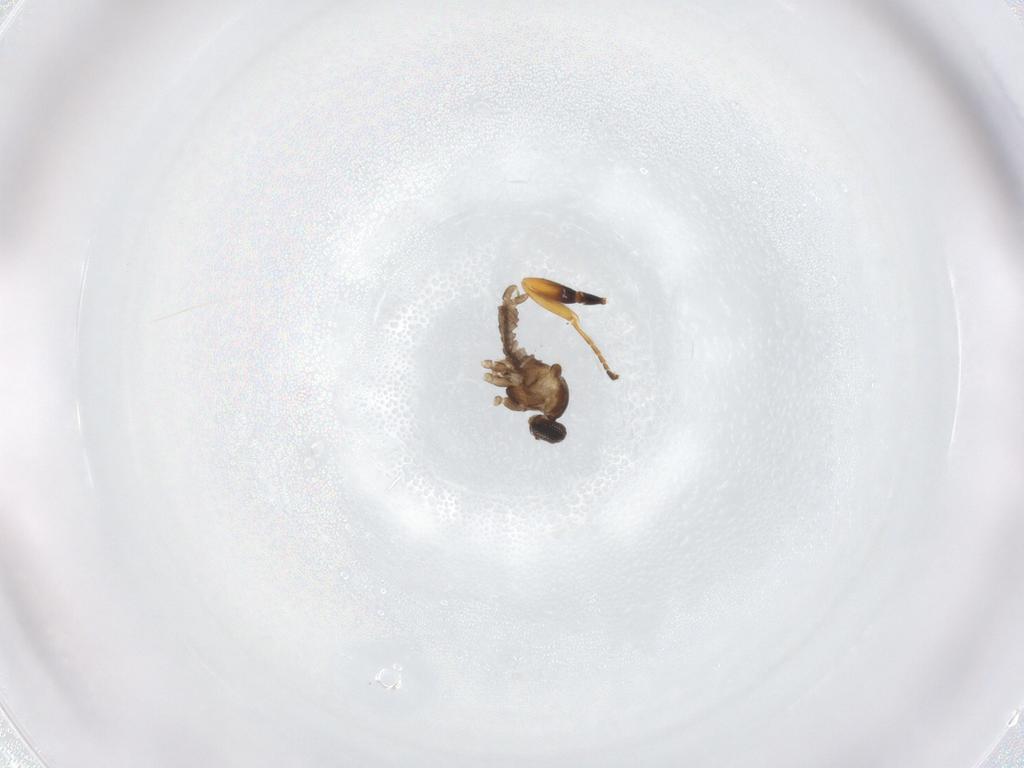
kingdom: Animalia
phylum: Arthropoda
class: Insecta
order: Diptera
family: Cecidomyiidae
